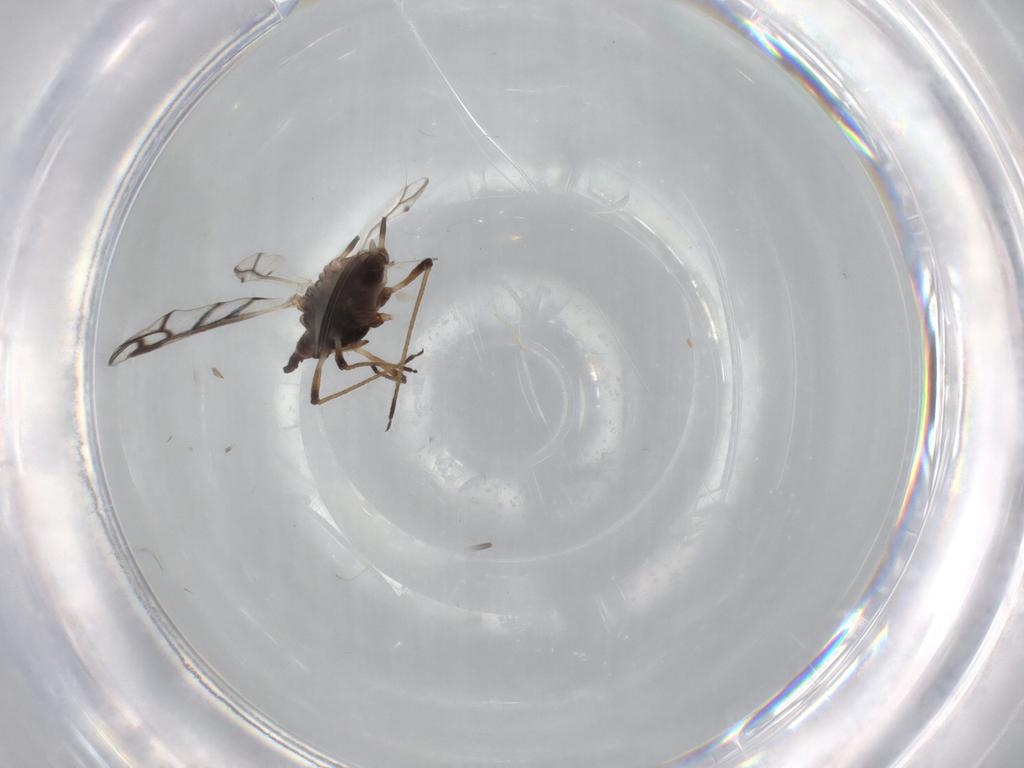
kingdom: Animalia
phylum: Arthropoda
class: Insecta
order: Hemiptera
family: Aphididae
